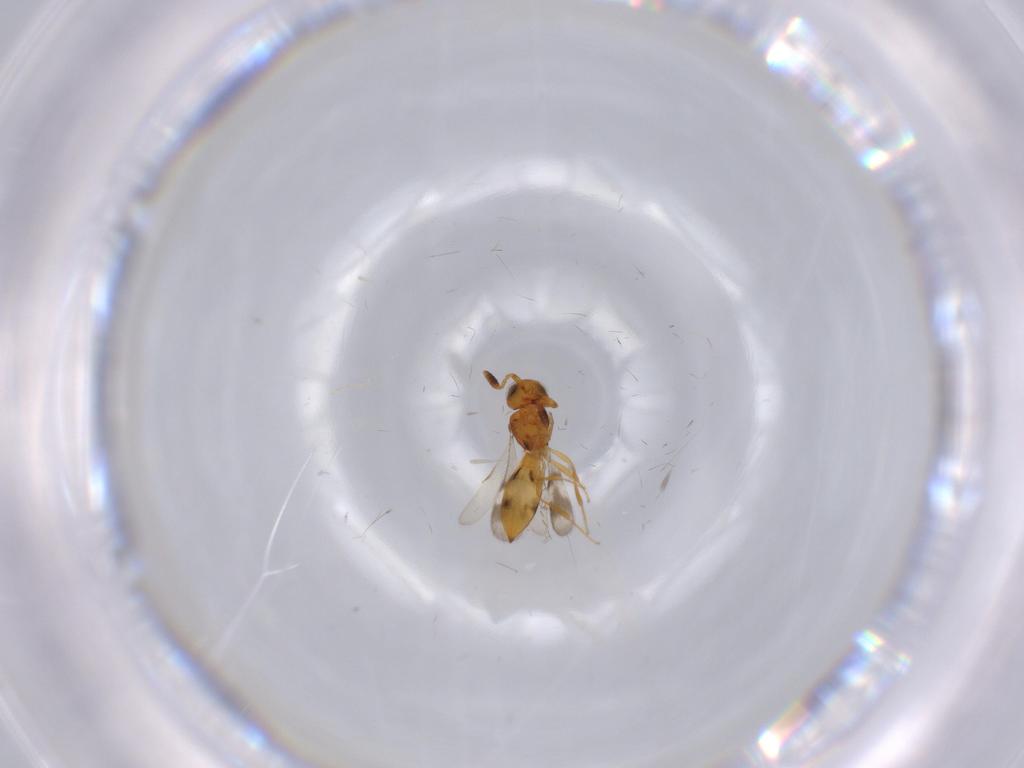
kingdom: Animalia
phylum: Arthropoda
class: Insecta
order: Hymenoptera
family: Scelionidae
